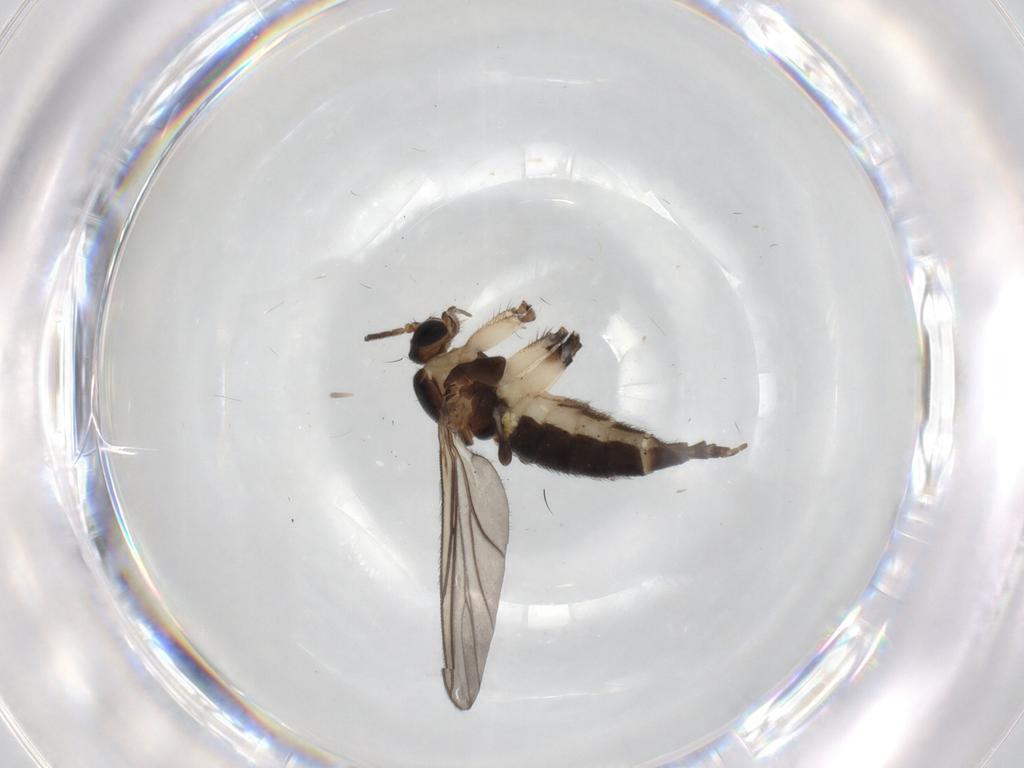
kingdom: Animalia
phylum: Arthropoda
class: Insecta
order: Diptera
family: Sciaridae
